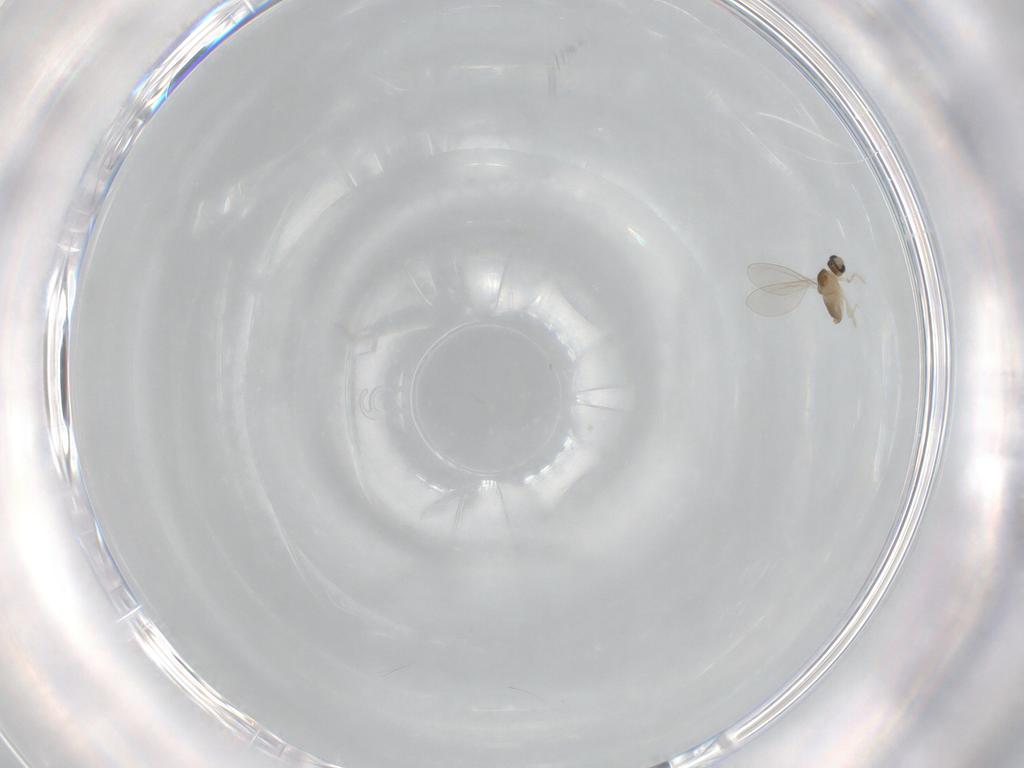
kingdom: Animalia
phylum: Arthropoda
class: Insecta
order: Diptera
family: Cecidomyiidae
